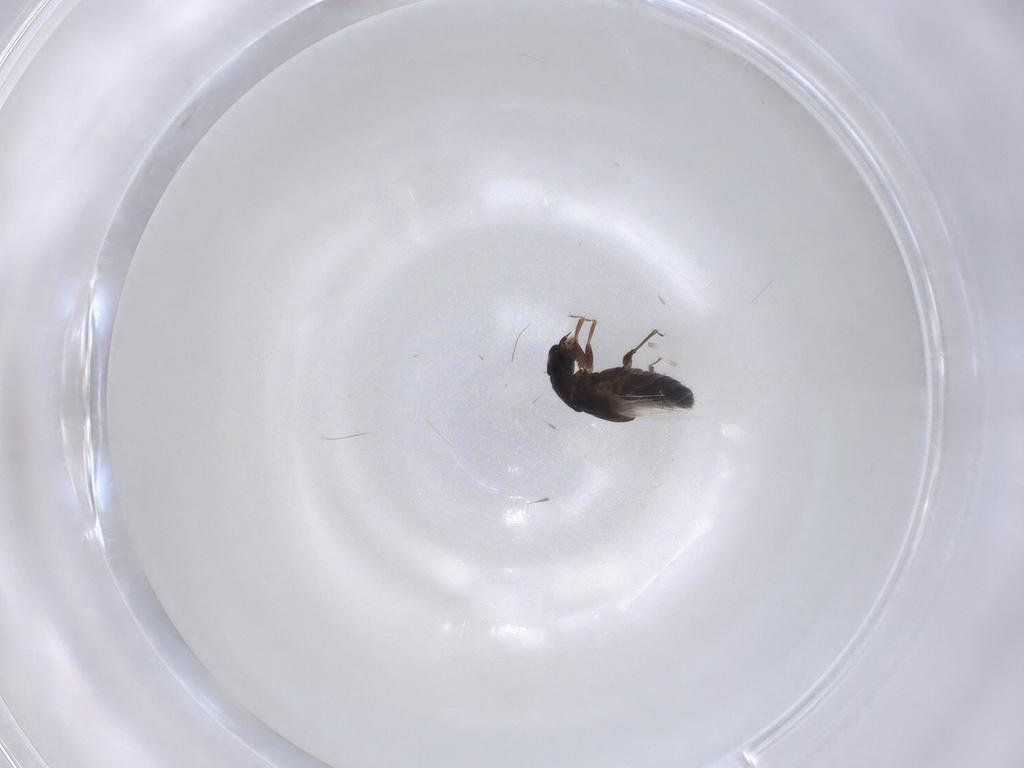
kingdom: Animalia
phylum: Arthropoda
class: Insecta
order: Coleoptera
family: Staphylinidae
